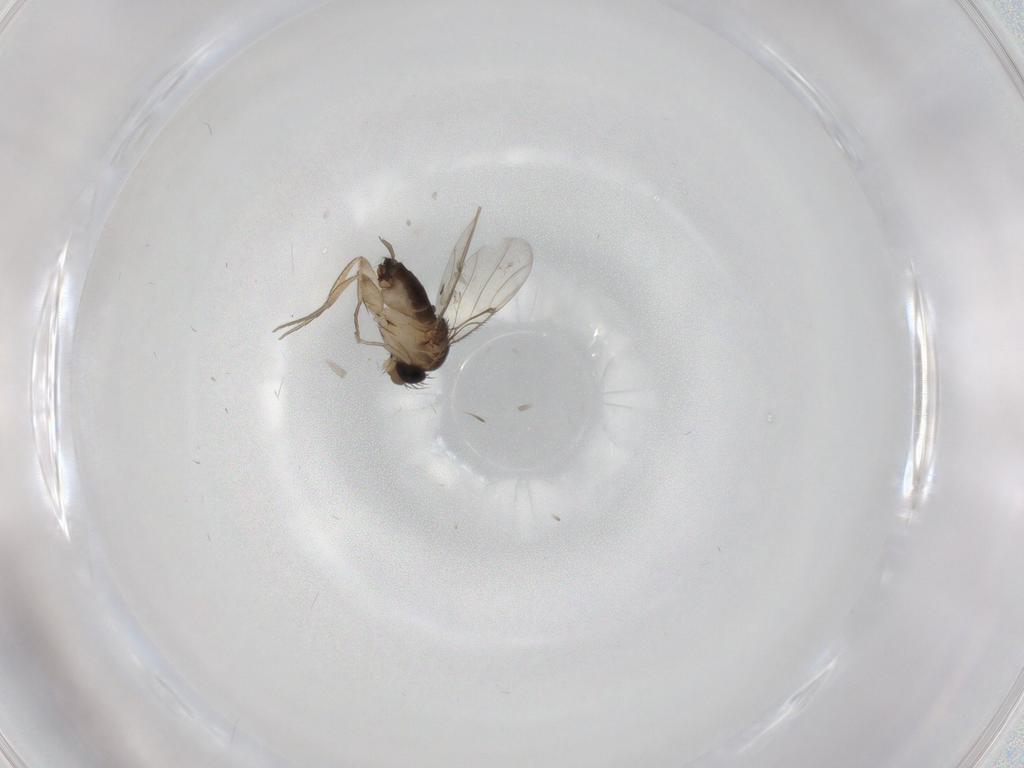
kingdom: Animalia
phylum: Arthropoda
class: Insecta
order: Diptera
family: Ceratopogonidae
